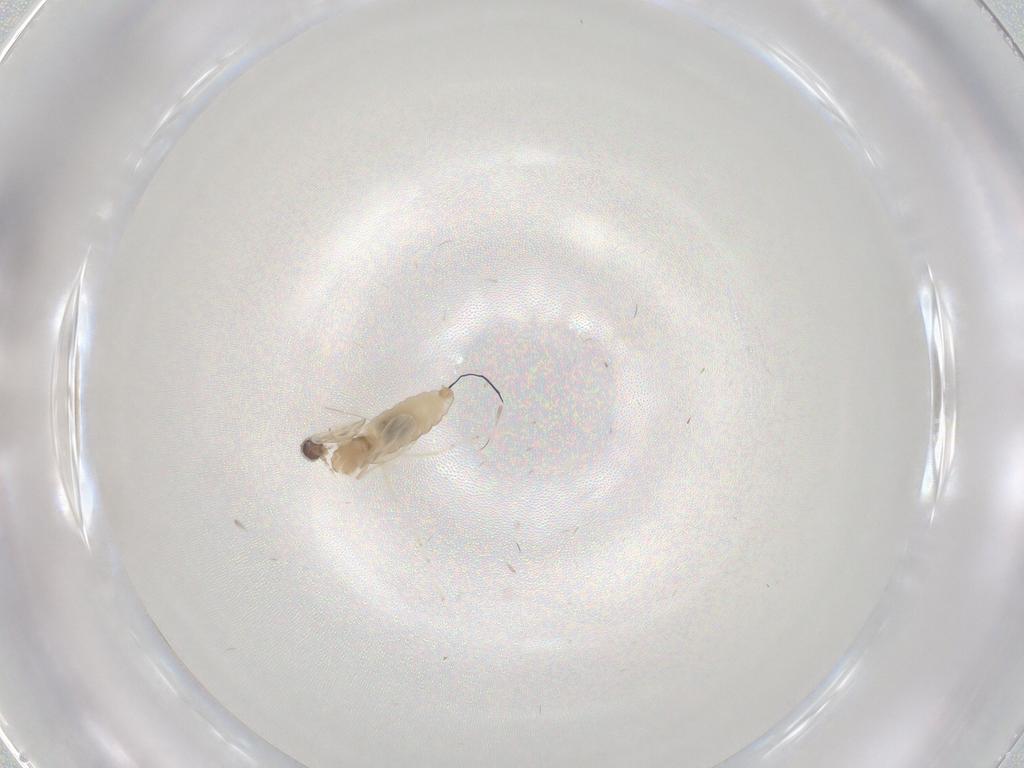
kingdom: Animalia
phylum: Arthropoda
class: Insecta
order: Diptera
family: Cecidomyiidae
